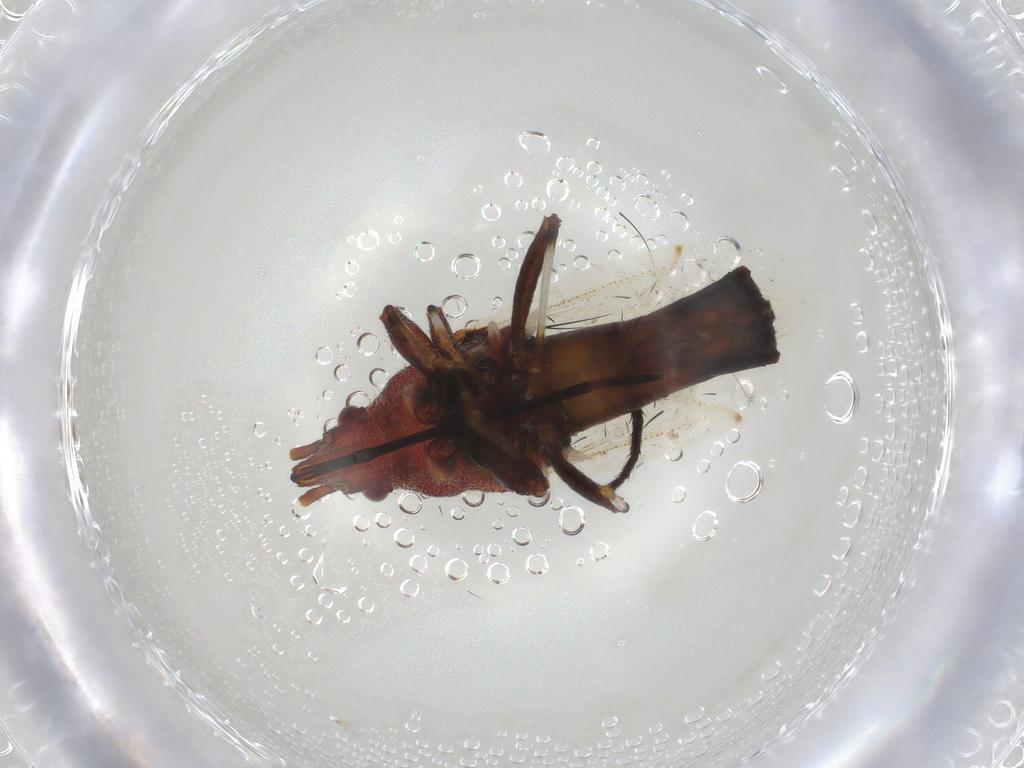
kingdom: Animalia
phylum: Arthropoda
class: Insecta
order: Hemiptera
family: Oxycarenidae
